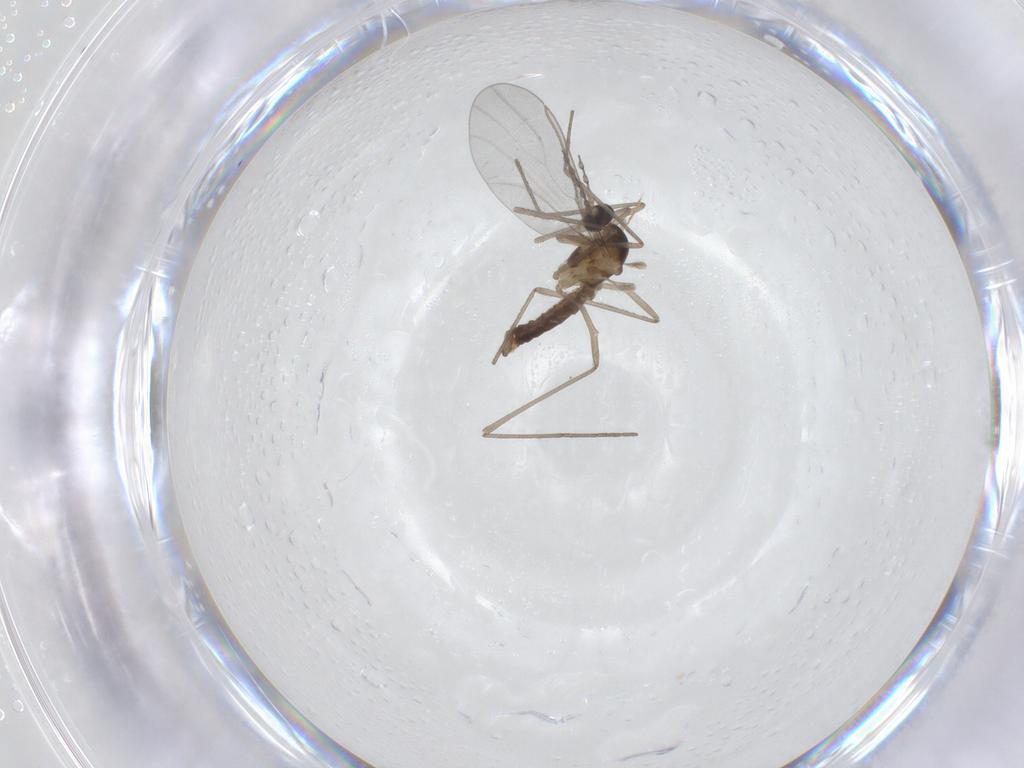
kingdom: Animalia
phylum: Arthropoda
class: Insecta
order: Diptera
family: Cecidomyiidae
